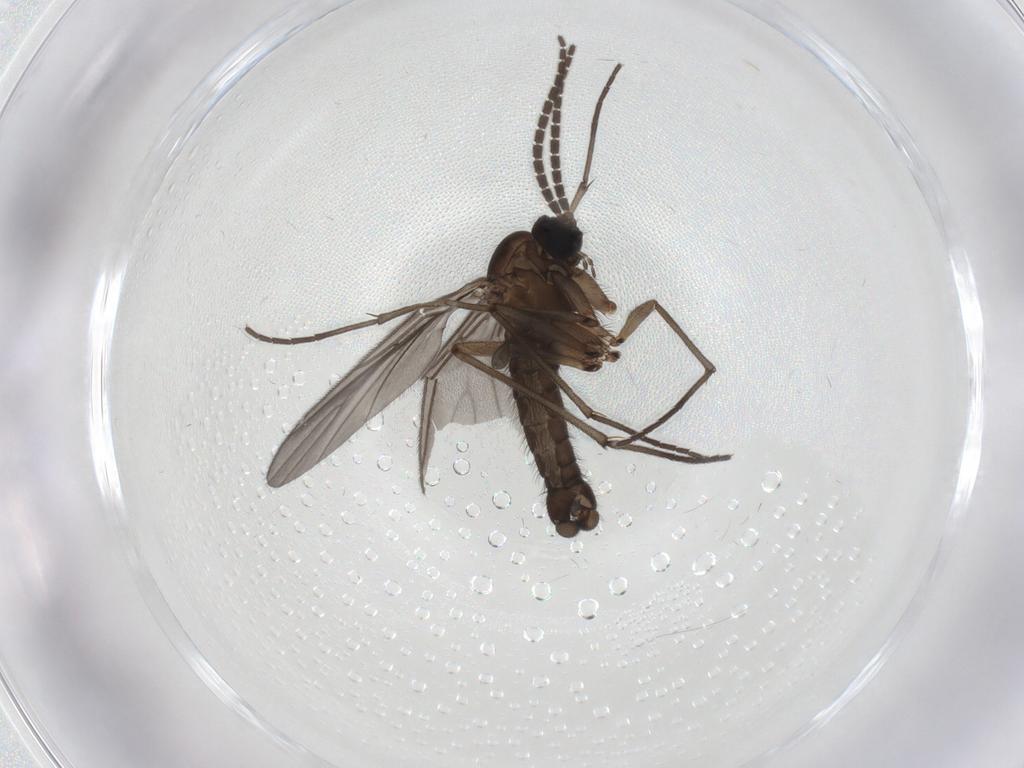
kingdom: Animalia
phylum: Arthropoda
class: Insecta
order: Diptera
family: Sciaridae
